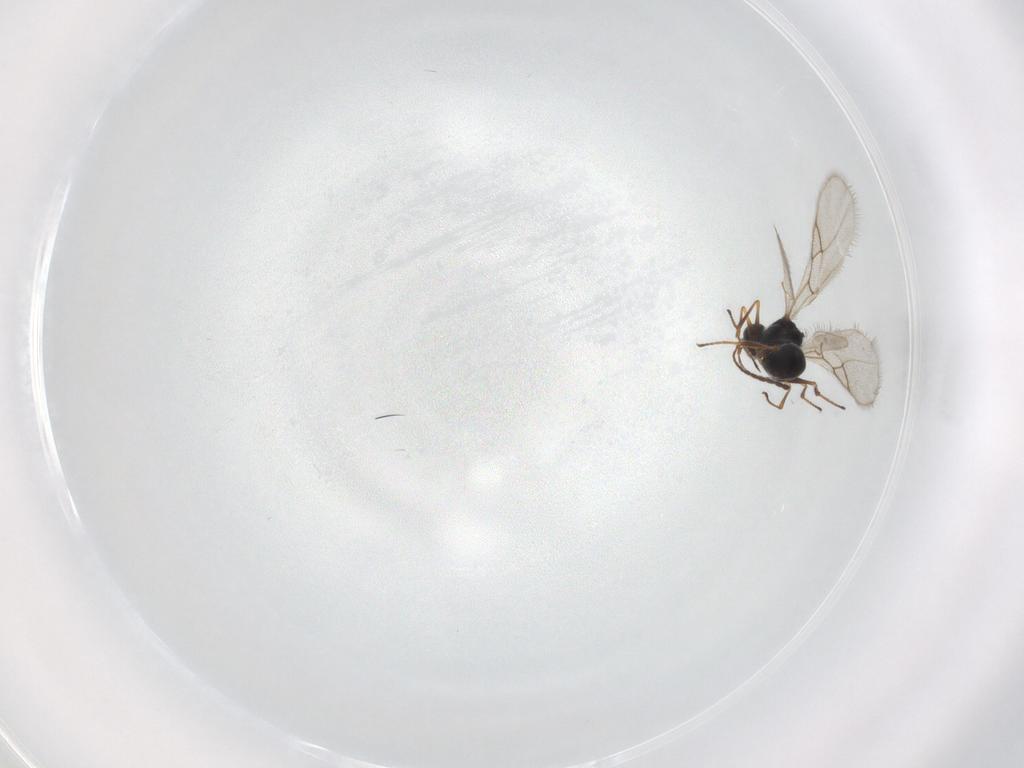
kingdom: Animalia
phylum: Arthropoda
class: Insecta
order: Hymenoptera
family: Figitidae
